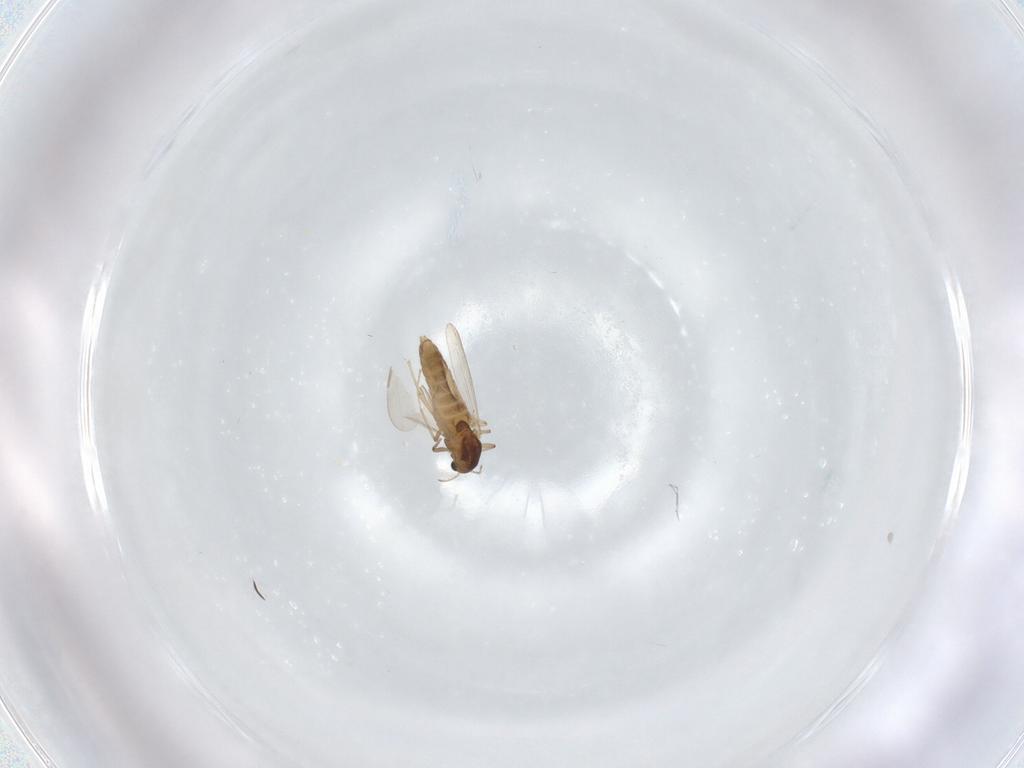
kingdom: Animalia
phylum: Arthropoda
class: Insecta
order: Diptera
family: Chironomidae
